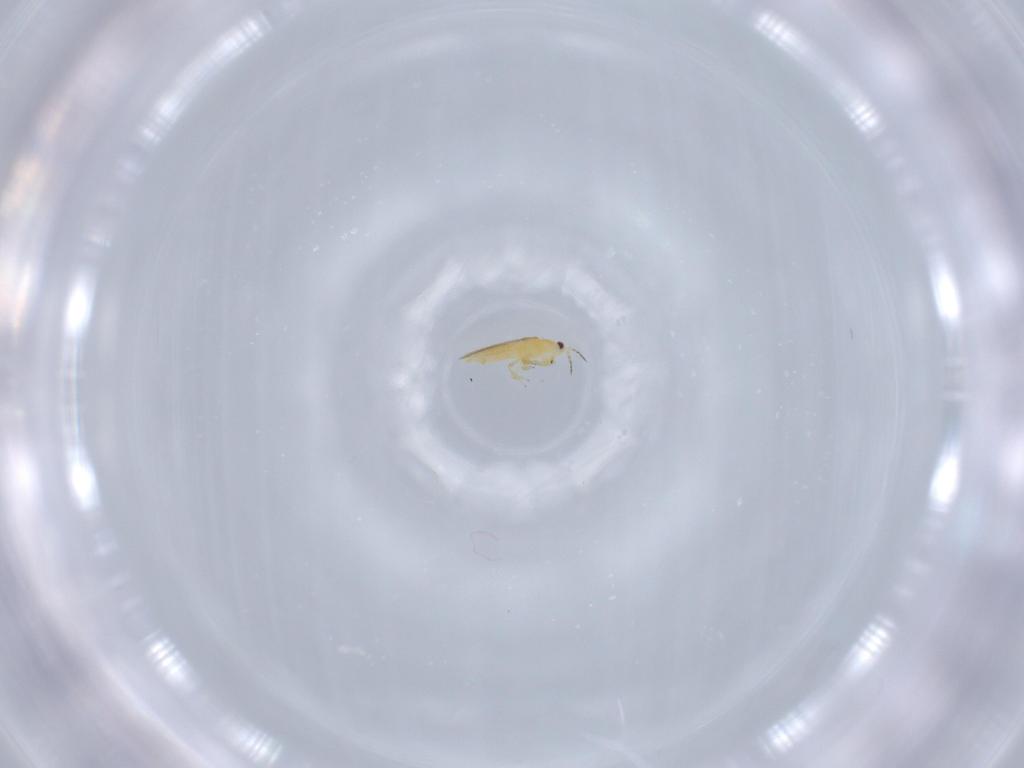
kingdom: Animalia
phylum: Arthropoda
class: Insecta
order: Thysanoptera
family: Thripidae
